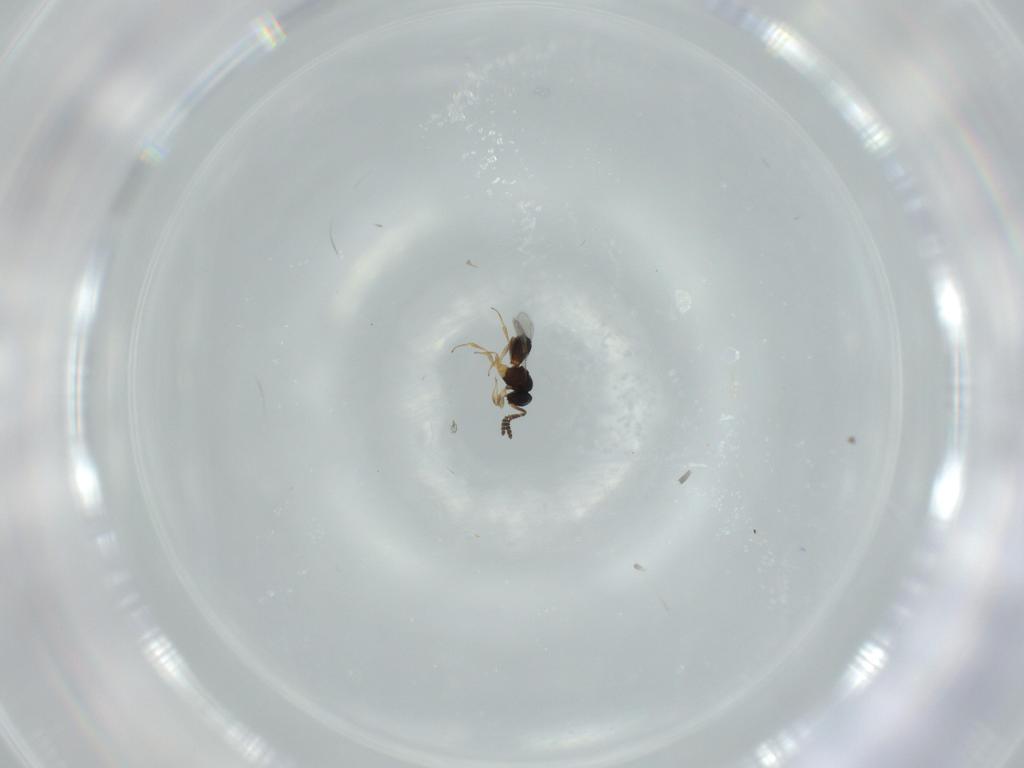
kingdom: Animalia
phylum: Arthropoda
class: Insecta
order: Hymenoptera
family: Scelionidae
